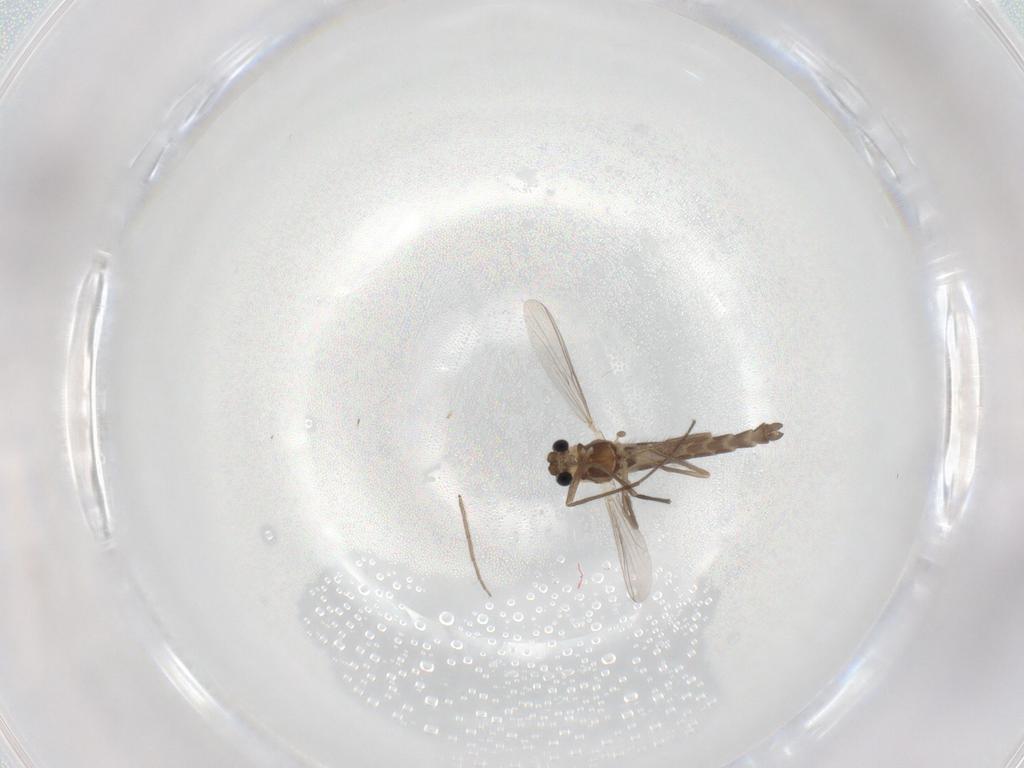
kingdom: Animalia
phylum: Arthropoda
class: Insecta
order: Diptera
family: Chironomidae
